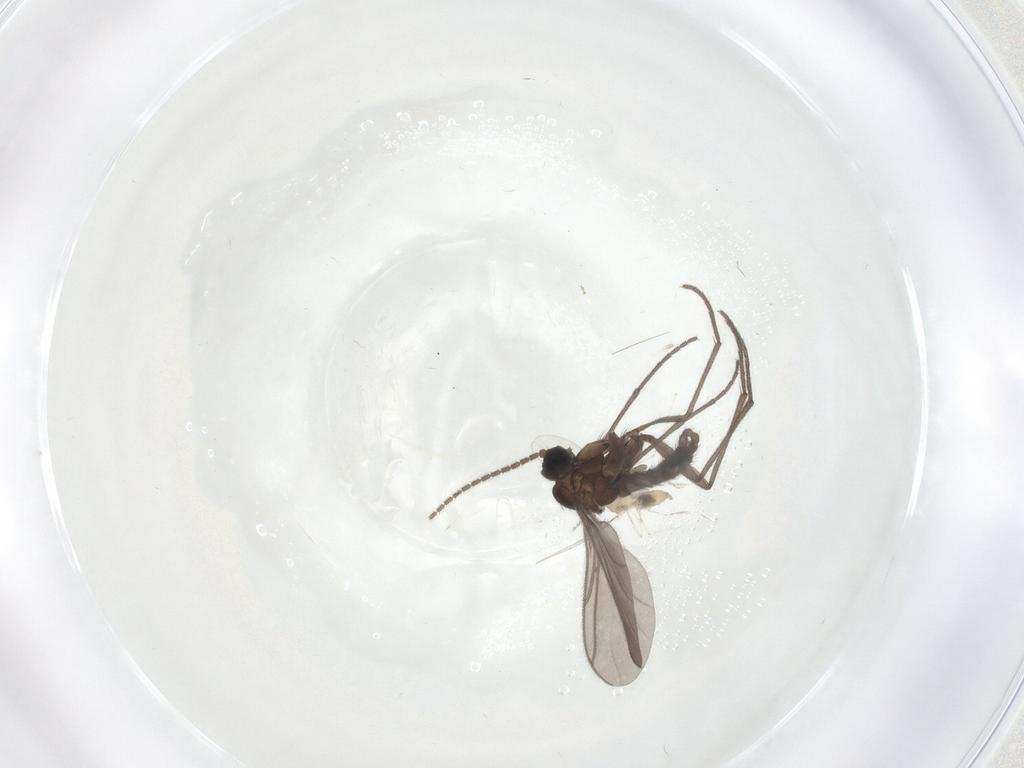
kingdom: Animalia
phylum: Arthropoda
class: Insecta
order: Diptera
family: Sciaridae
